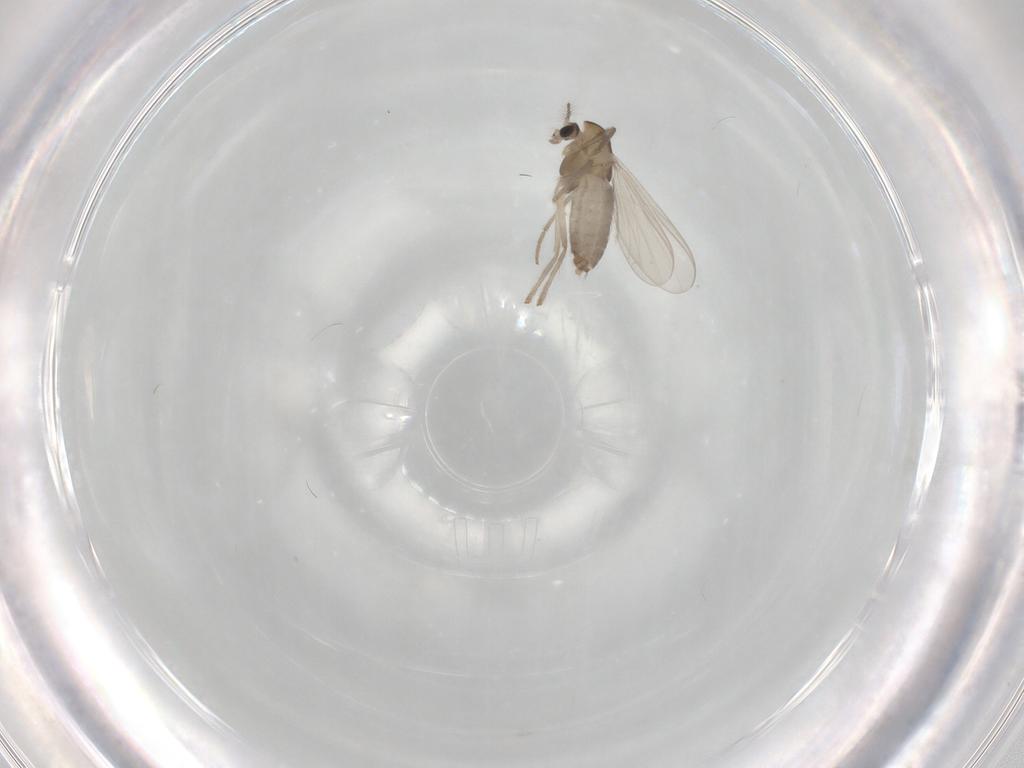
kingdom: Animalia
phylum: Arthropoda
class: Insecta
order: Diptera
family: Chironomidae
